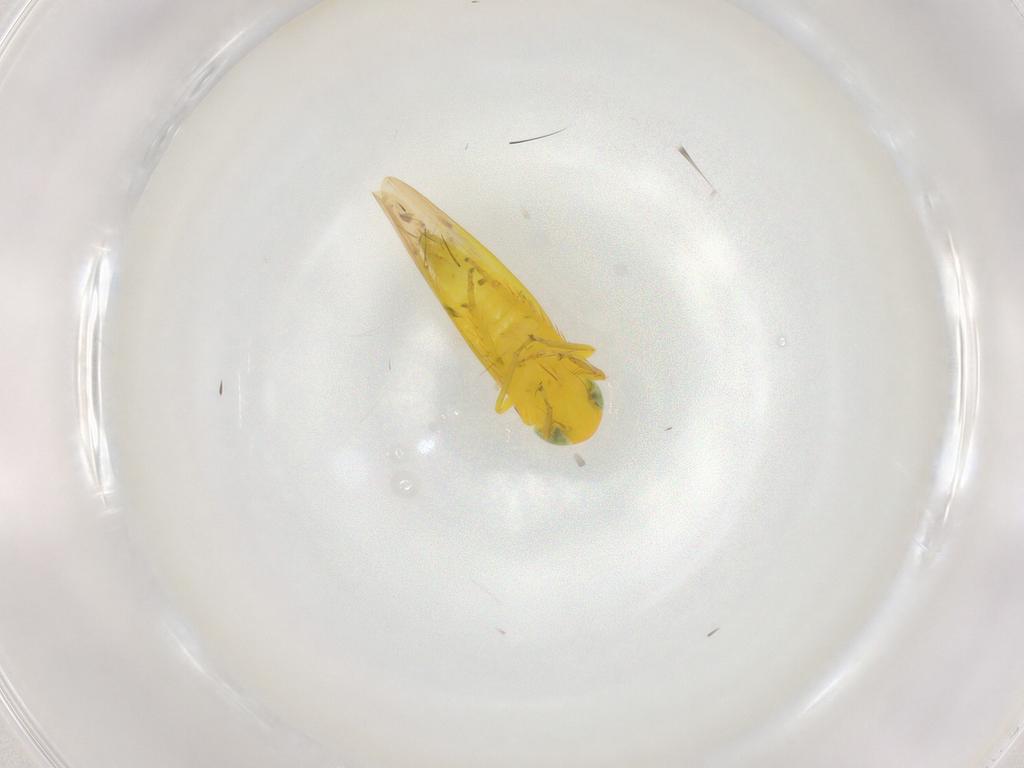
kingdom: Animalia
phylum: Arthropoda
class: Insecta
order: Hemiptera
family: Cicadellidae
